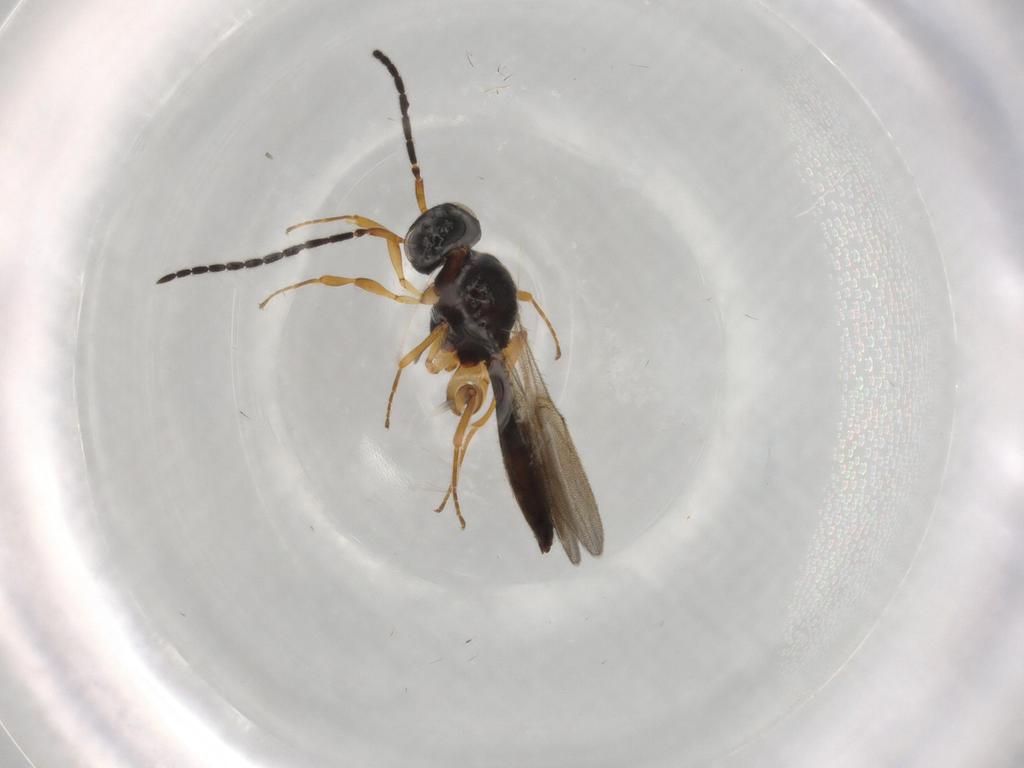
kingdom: Animalia
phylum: Arthropoda
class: Insecta
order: Hymenoptera
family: Scelionidae
